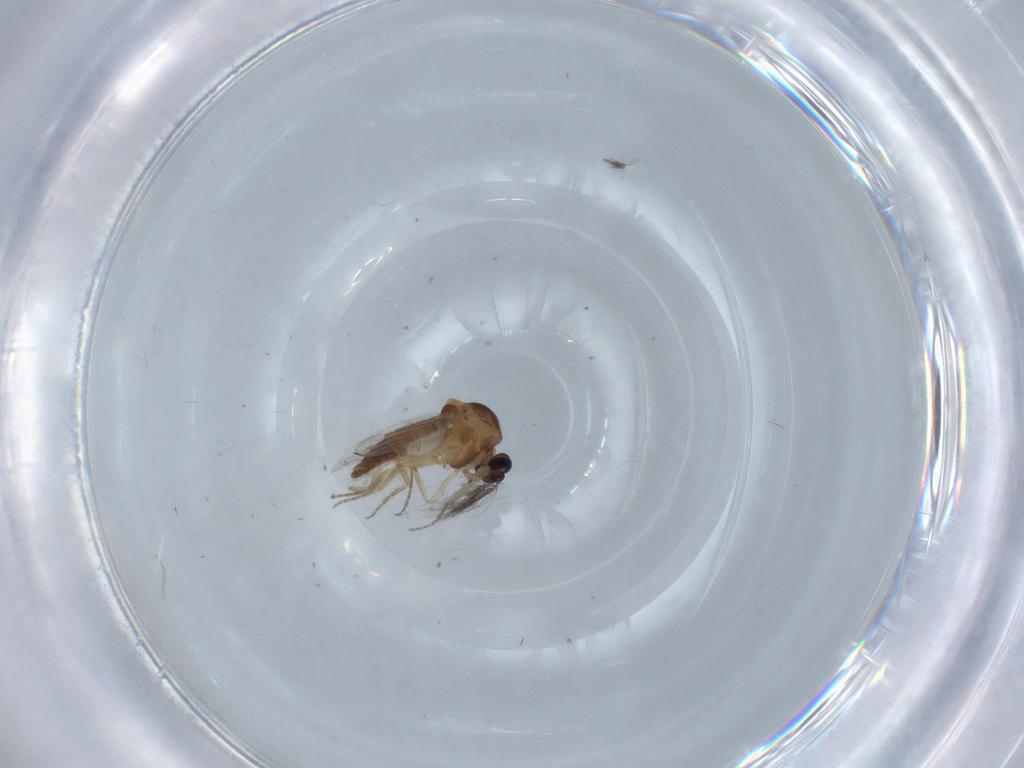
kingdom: Animalia
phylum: Arthropoda
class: Insecta
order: Diptera
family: Ceratopogonidae
